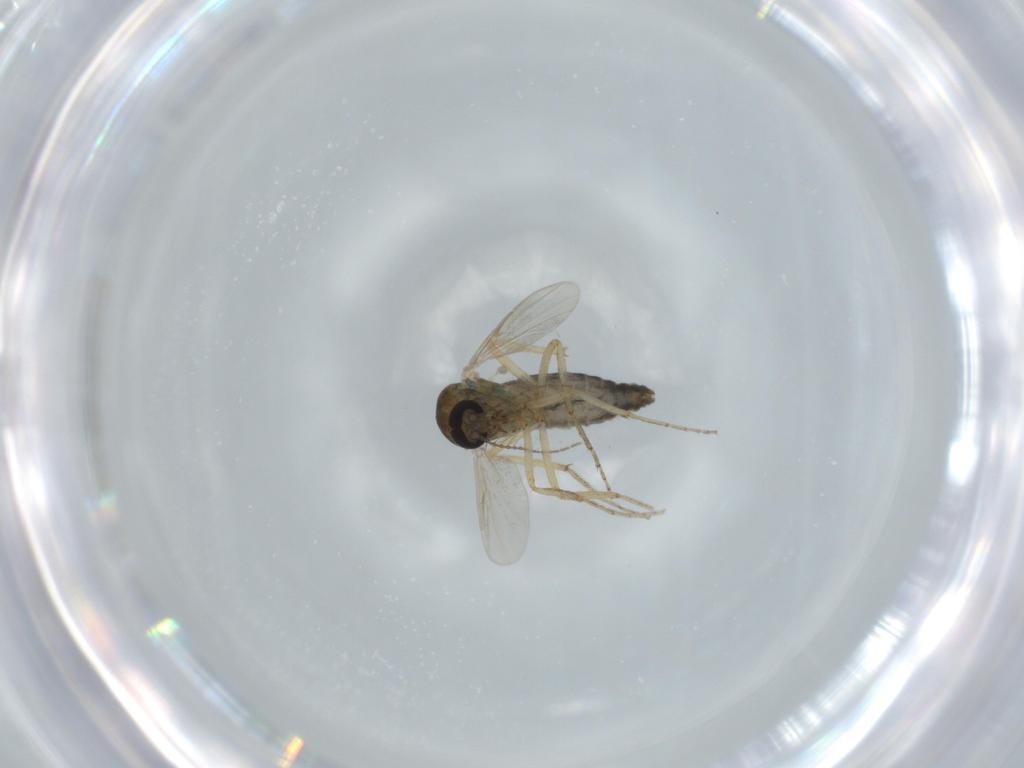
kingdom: Animalia
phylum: Arthropoda
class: Insecta
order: Diptera
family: Ceratopogonidae
